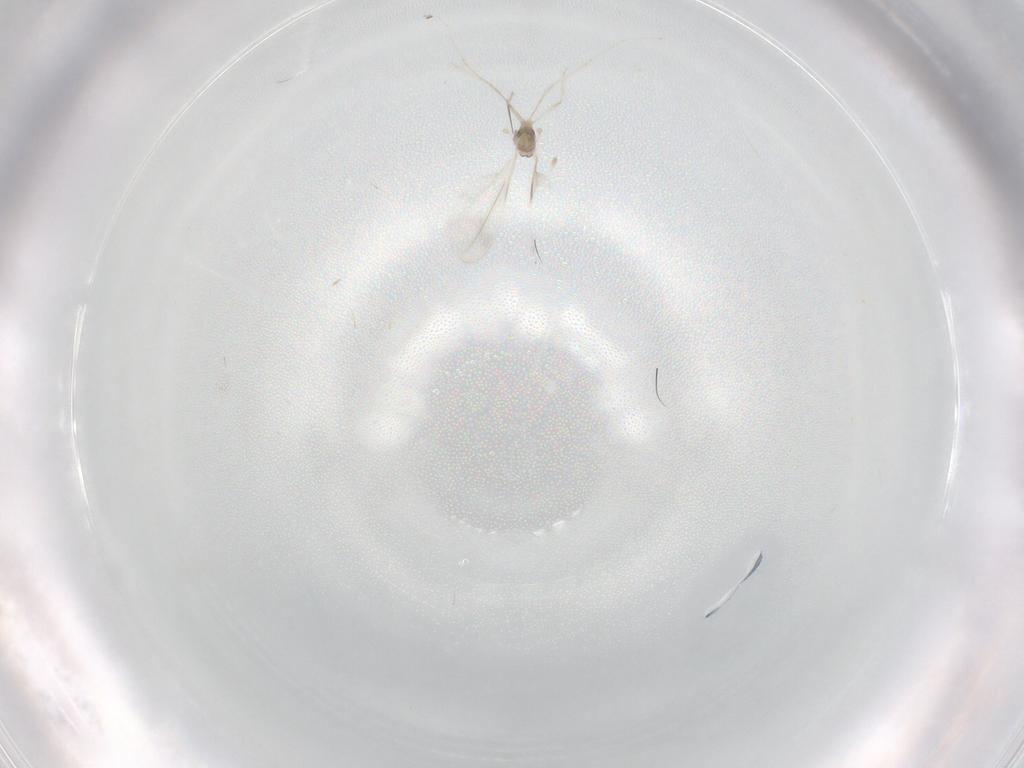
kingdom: Animalia
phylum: Arthropoda
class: Insecta
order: Diptera
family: Cecidomyiidae
